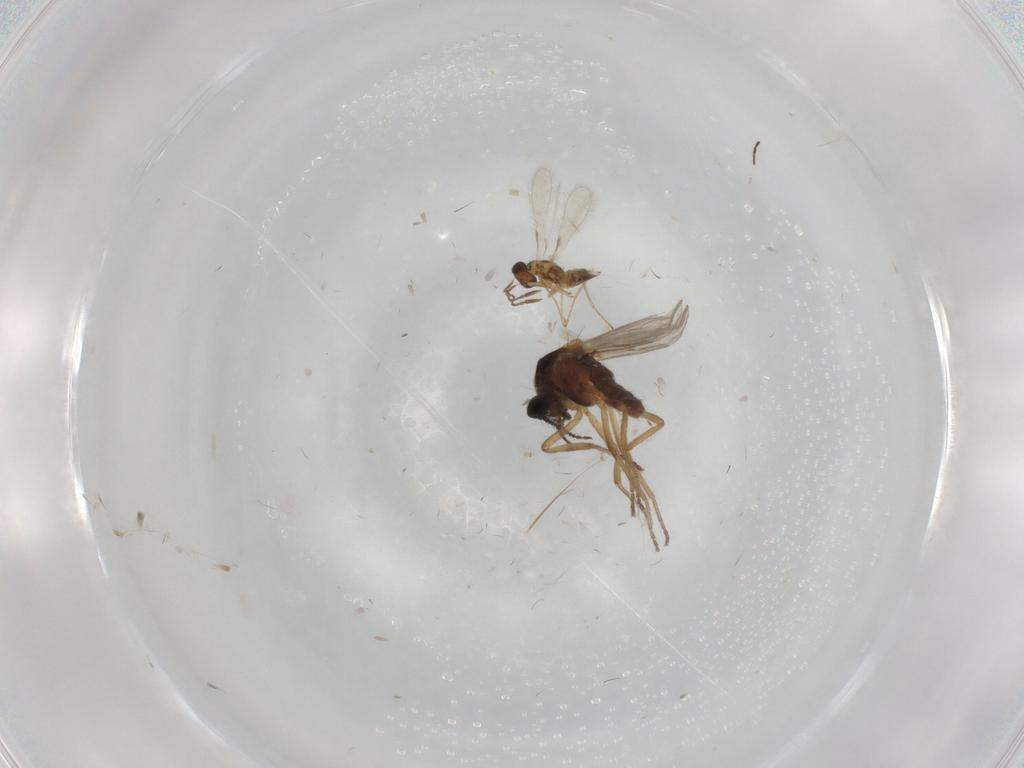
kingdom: Animalia
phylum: Arthropoda
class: Insecta
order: Diptera
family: Ceratopogonidae
